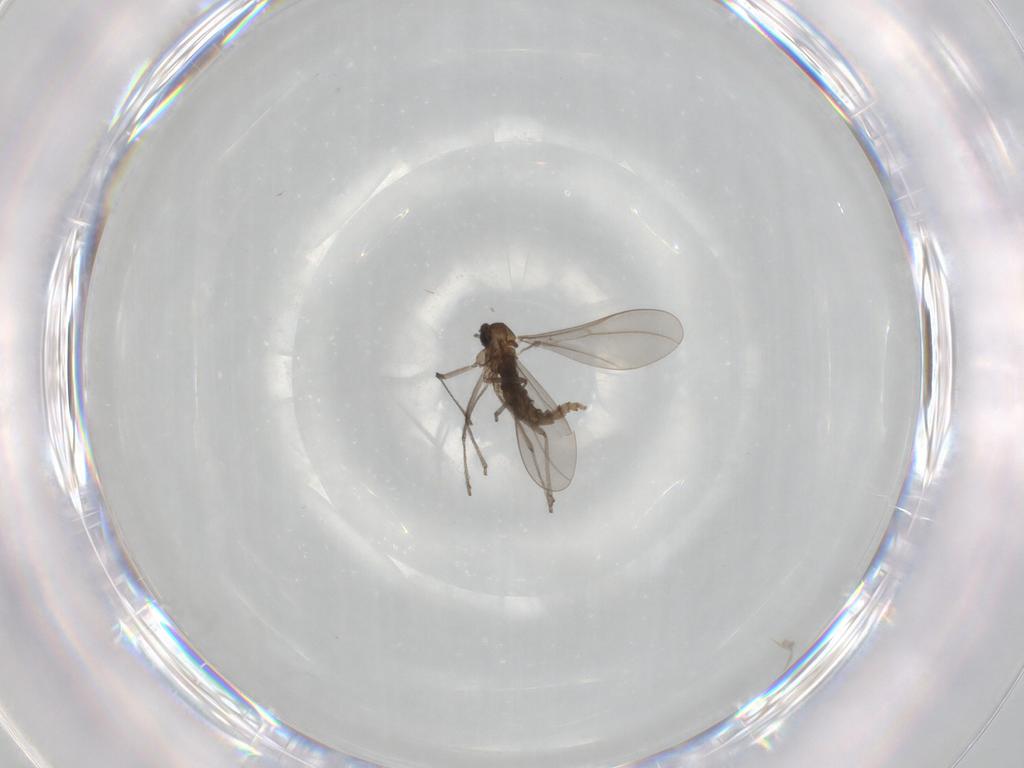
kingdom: Animalia
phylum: Arthropoda
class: Insecta
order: Diptera
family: Cecidomyiidae
